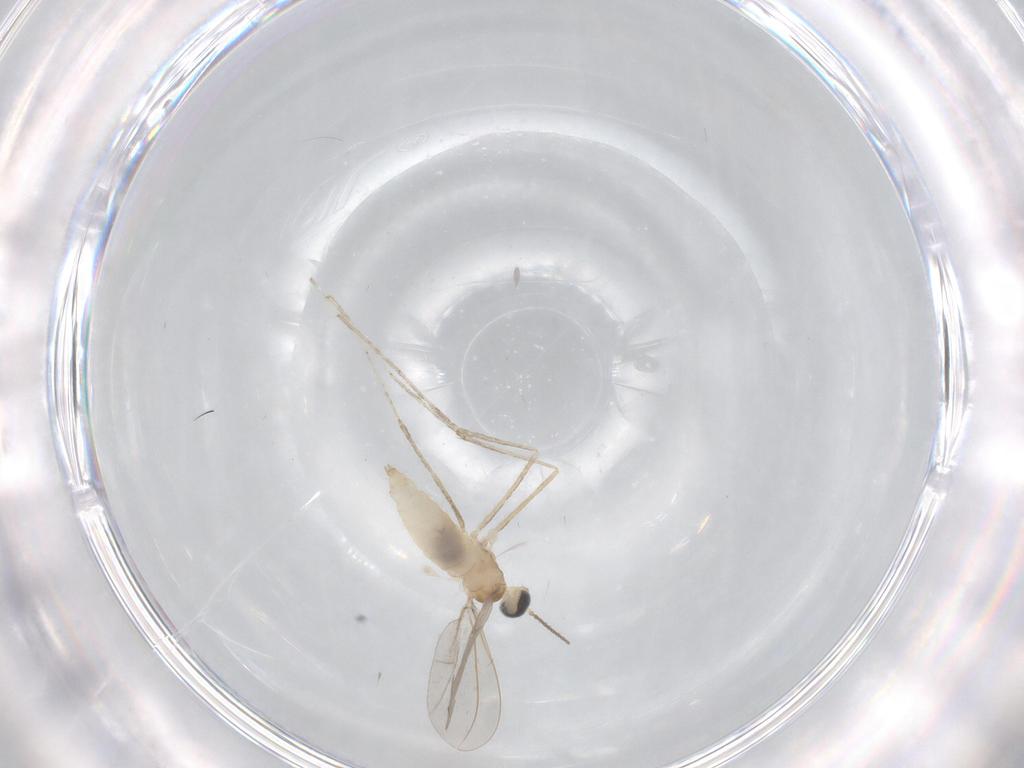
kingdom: Animalia
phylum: Arthropoda
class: Insecta
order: Diptera
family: Cecidomyiidae
